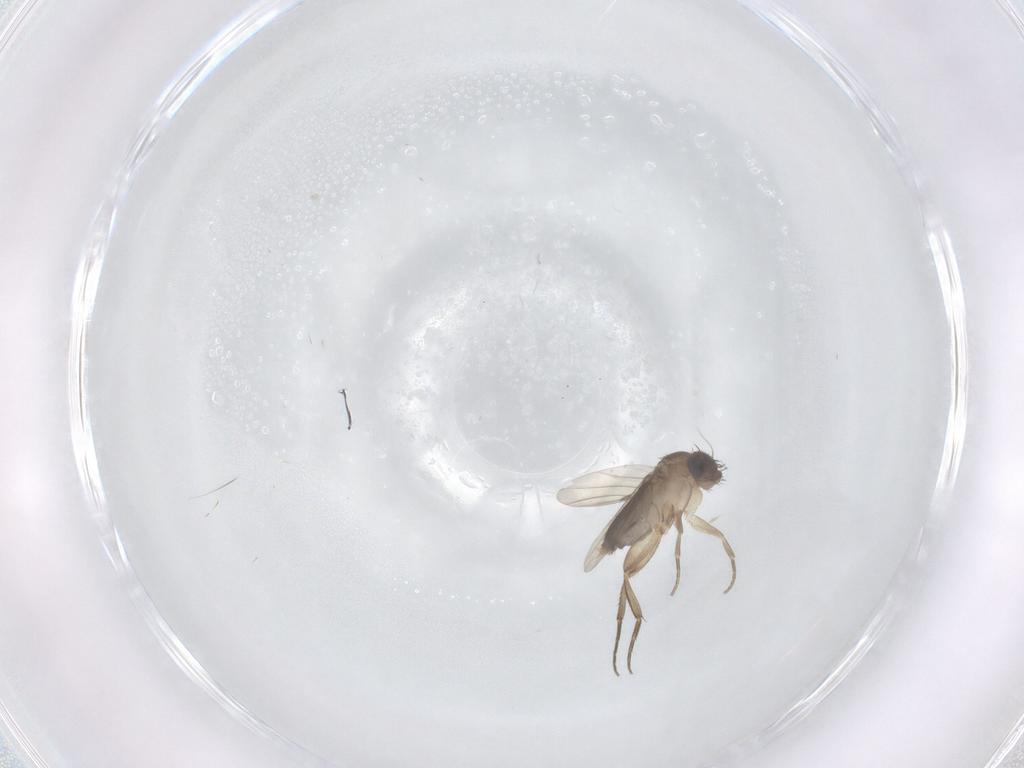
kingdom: Animalia
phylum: Arthropoda
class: Insecta
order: Diptera
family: Phoridae
